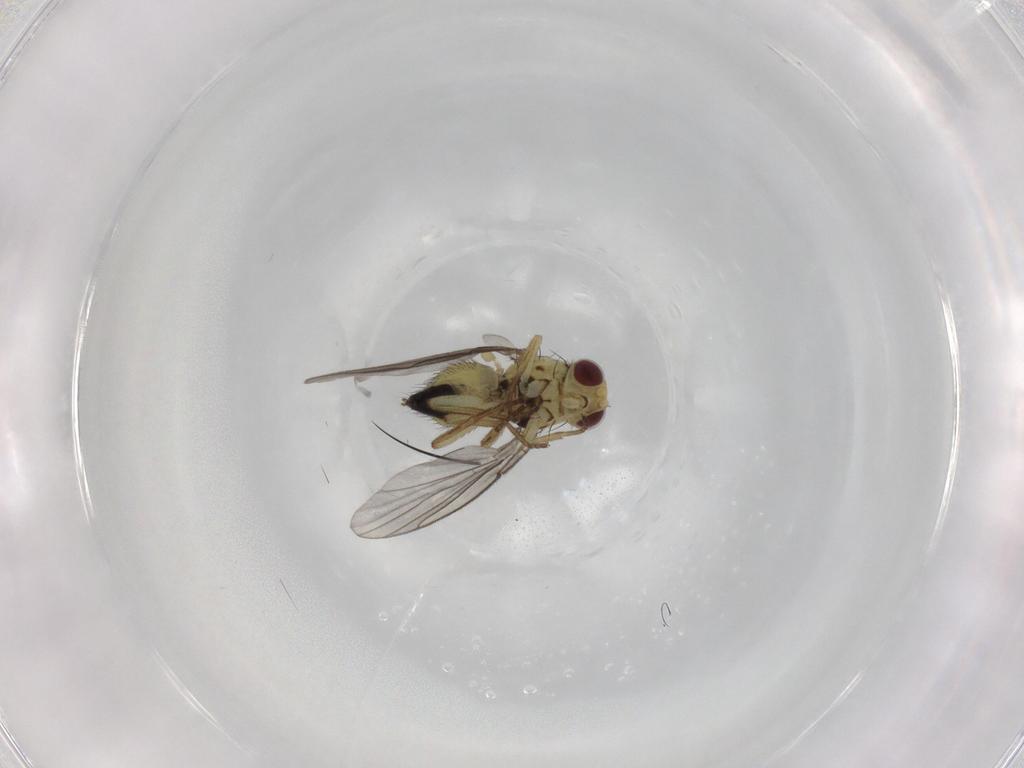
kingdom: Animalia
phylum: Arthropoda
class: Insecta
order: Diptera
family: Agromyzidae
